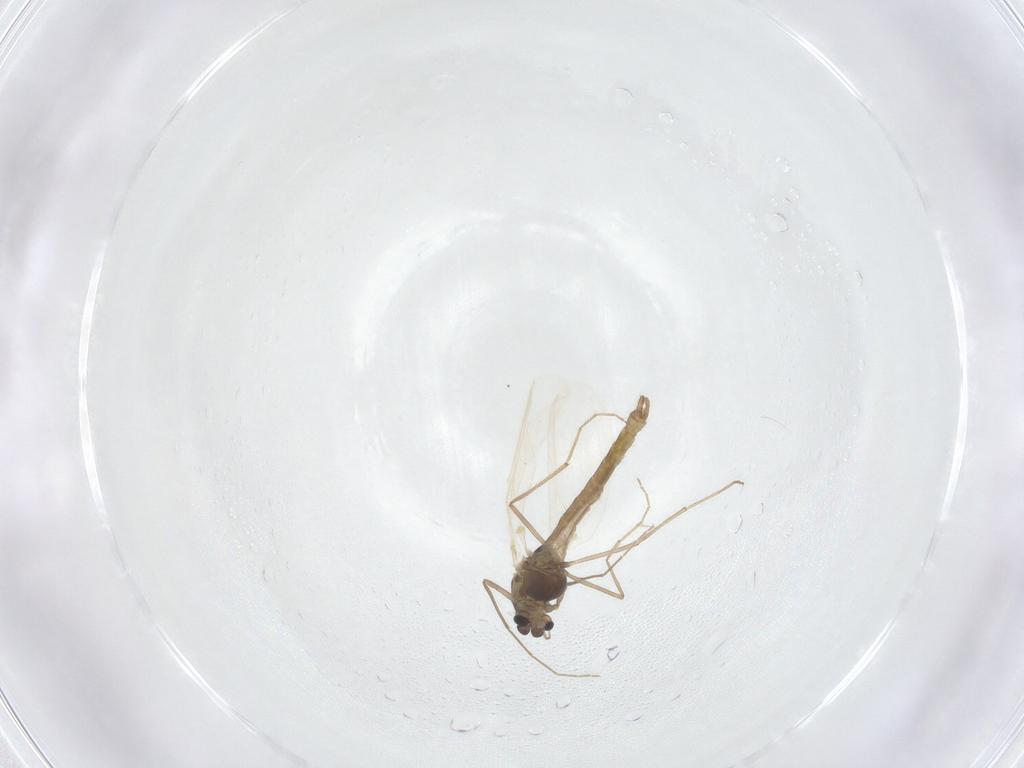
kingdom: Animalia
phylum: Arthropoda
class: Insecta
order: Diptera
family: Chironomidae
